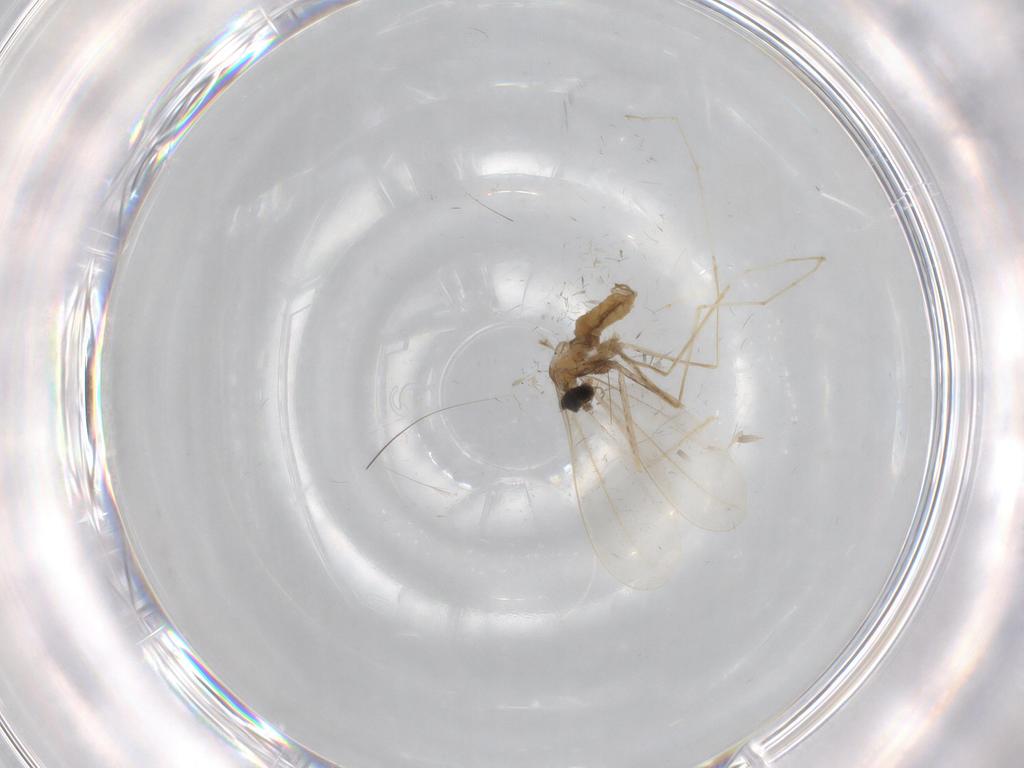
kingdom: Animalia
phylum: Arthropoda
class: Insecta
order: Diptera
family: Cecidomyiidae
